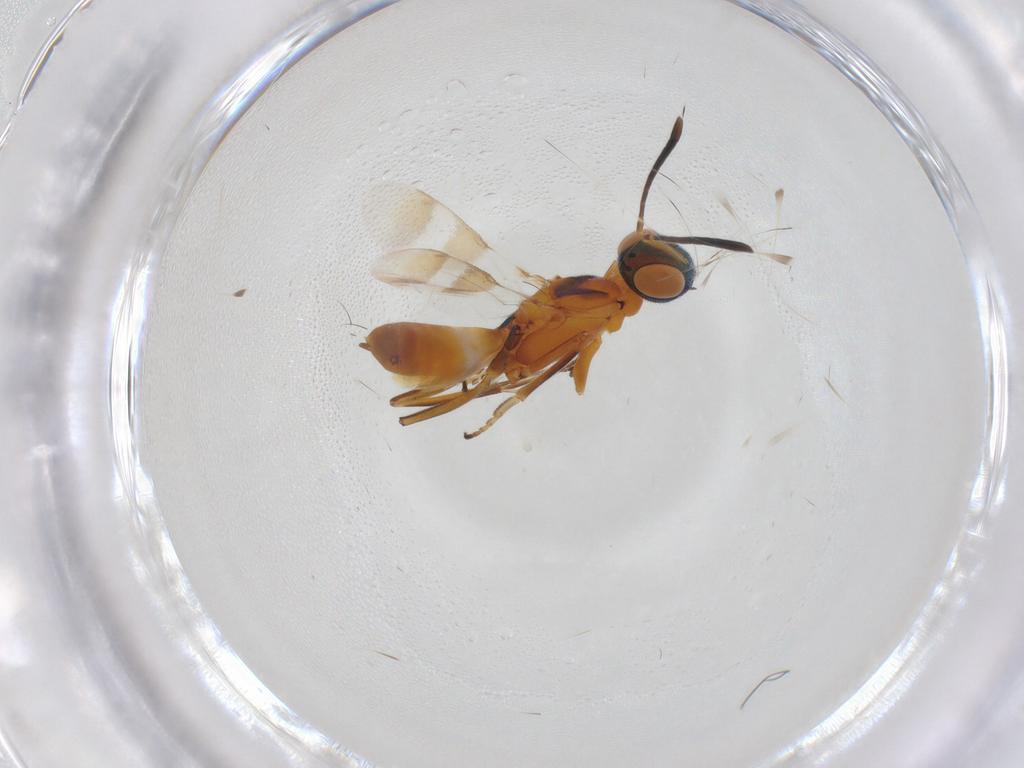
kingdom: Animalia
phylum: Arthropoda
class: Insecta
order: Hymenoptera
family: Eupelmidae
